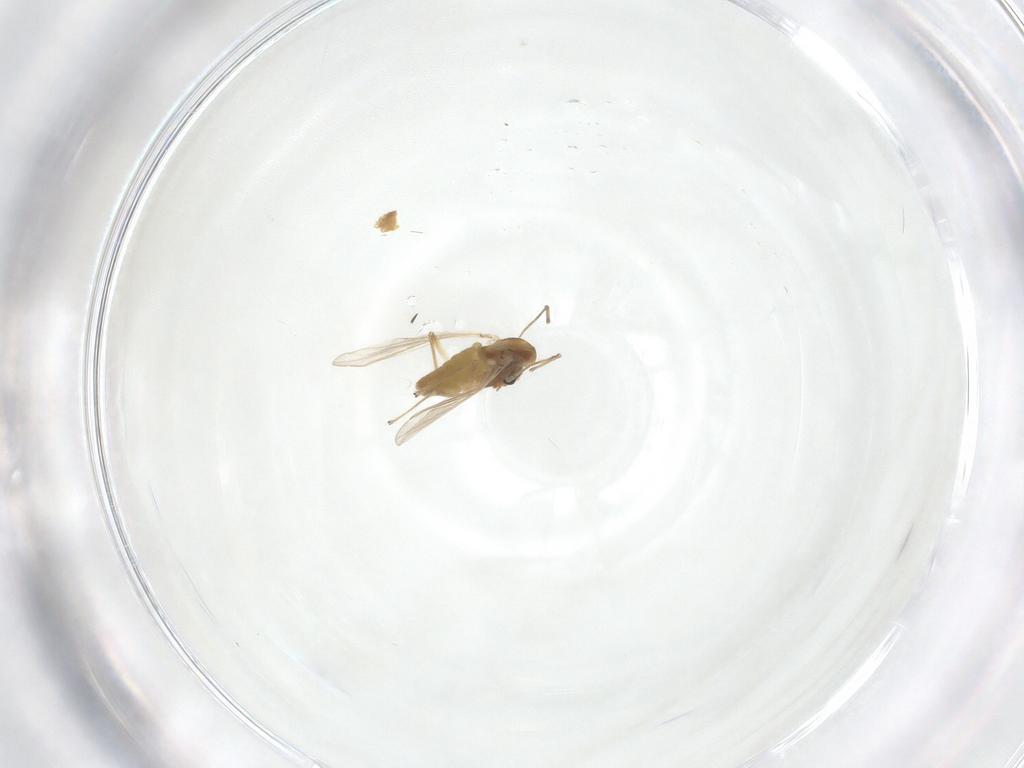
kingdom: Animalia
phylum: Arthropoda
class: Insecta
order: Diptera
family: Chironomidae
